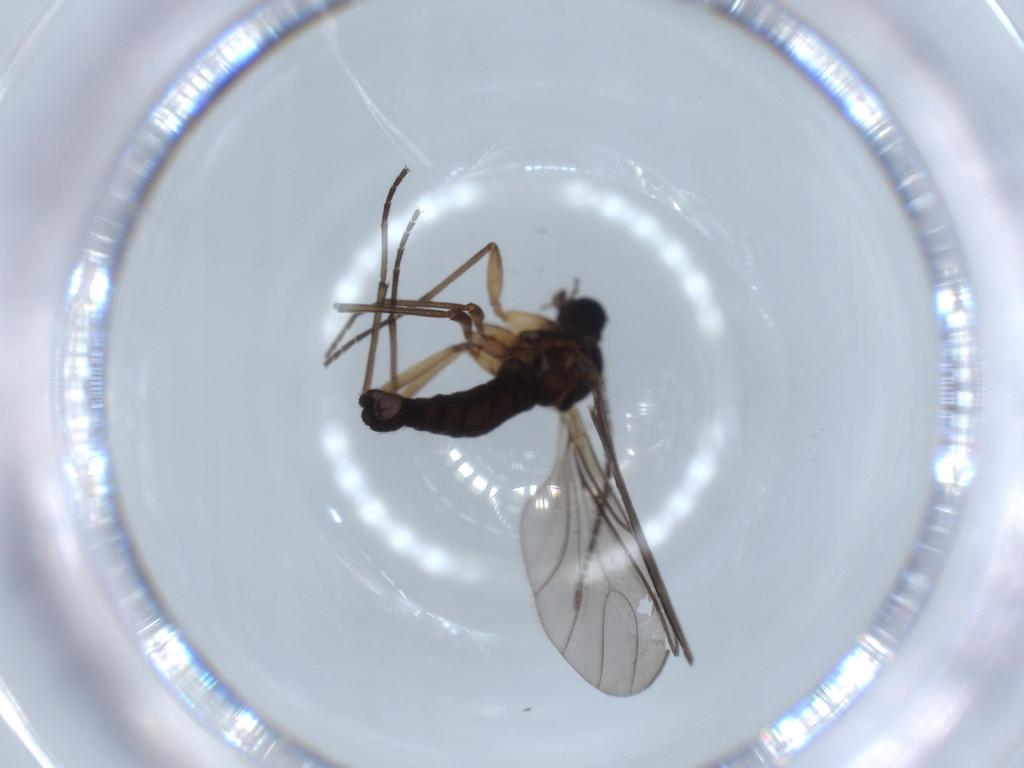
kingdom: Animalia
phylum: Arthropoda
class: Insecta
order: Diptera
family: Sciaridae
